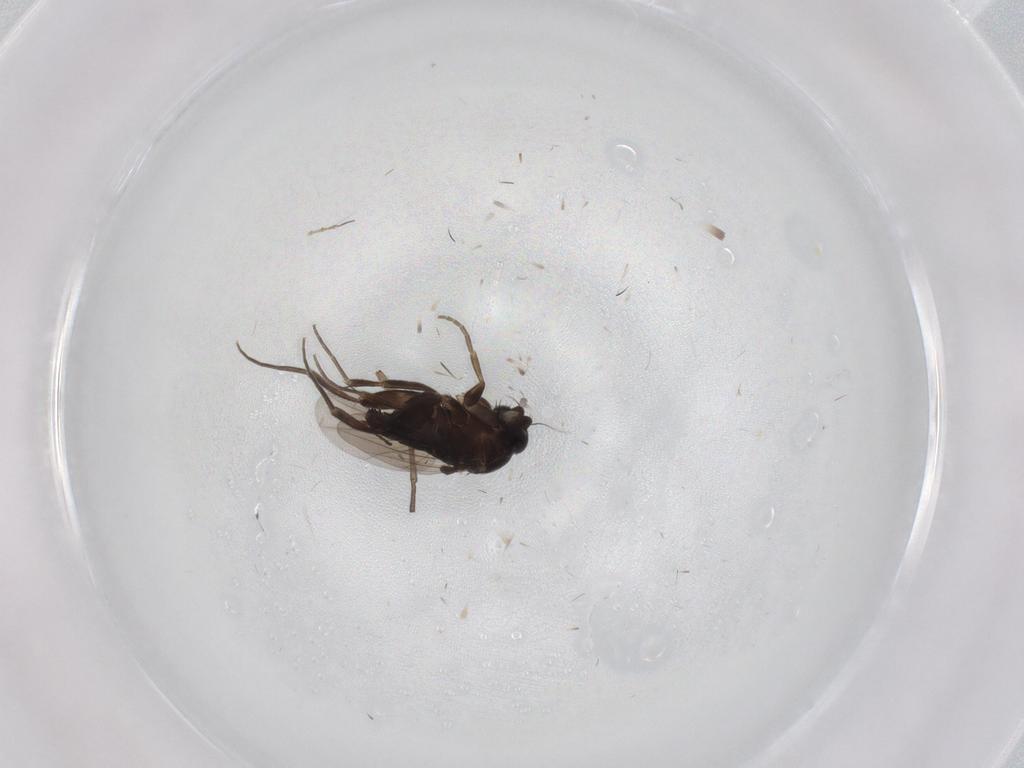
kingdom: Animalia
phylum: Arthropoda
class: Insecta
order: Diptera
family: Phoridae
